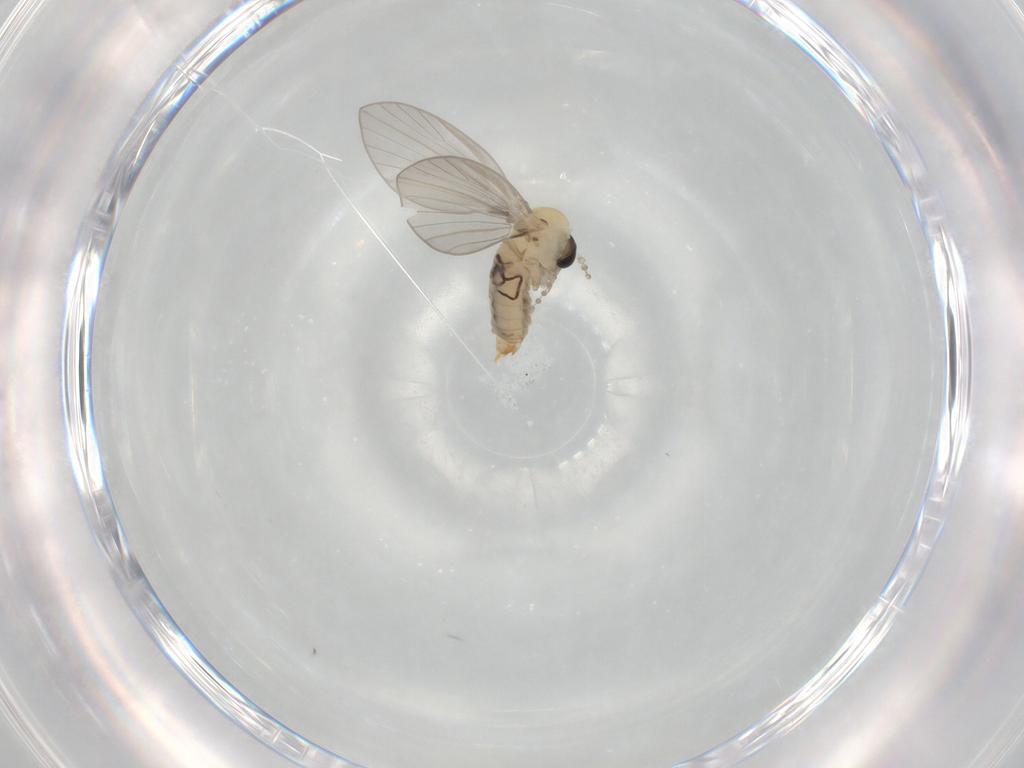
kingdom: Animalia
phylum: Arthropoda
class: Insecta
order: Diptera
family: Psychodidae
